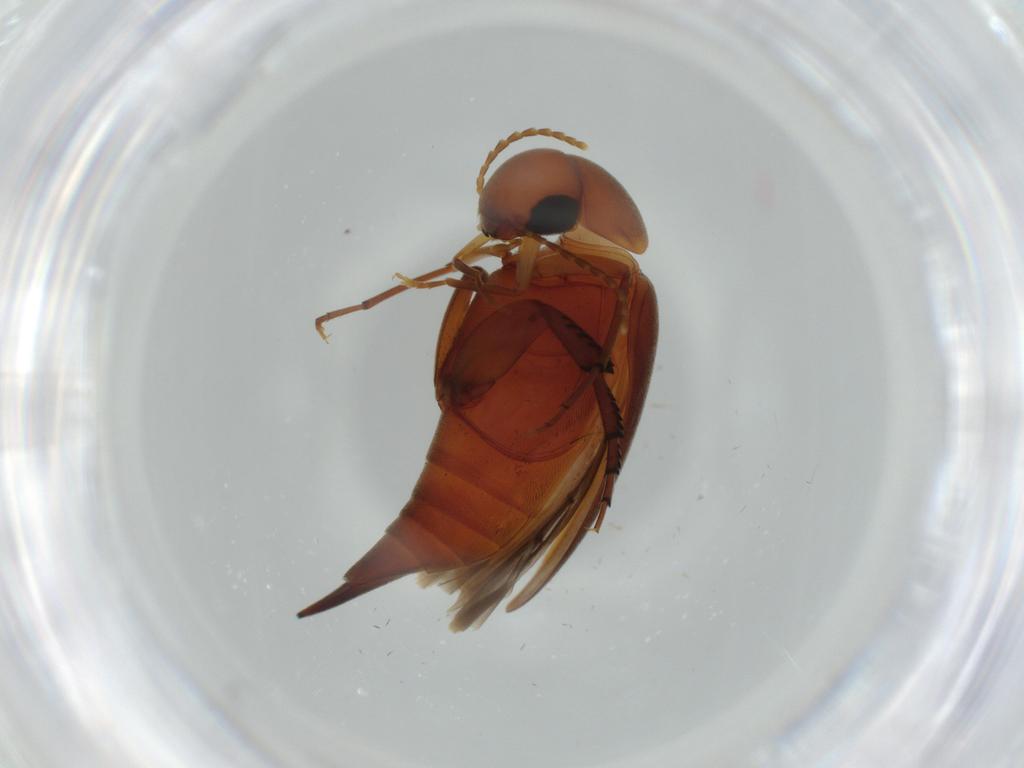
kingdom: Animalia
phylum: Arthropoda
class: Insecta
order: Coleoptera
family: Mordellidae
